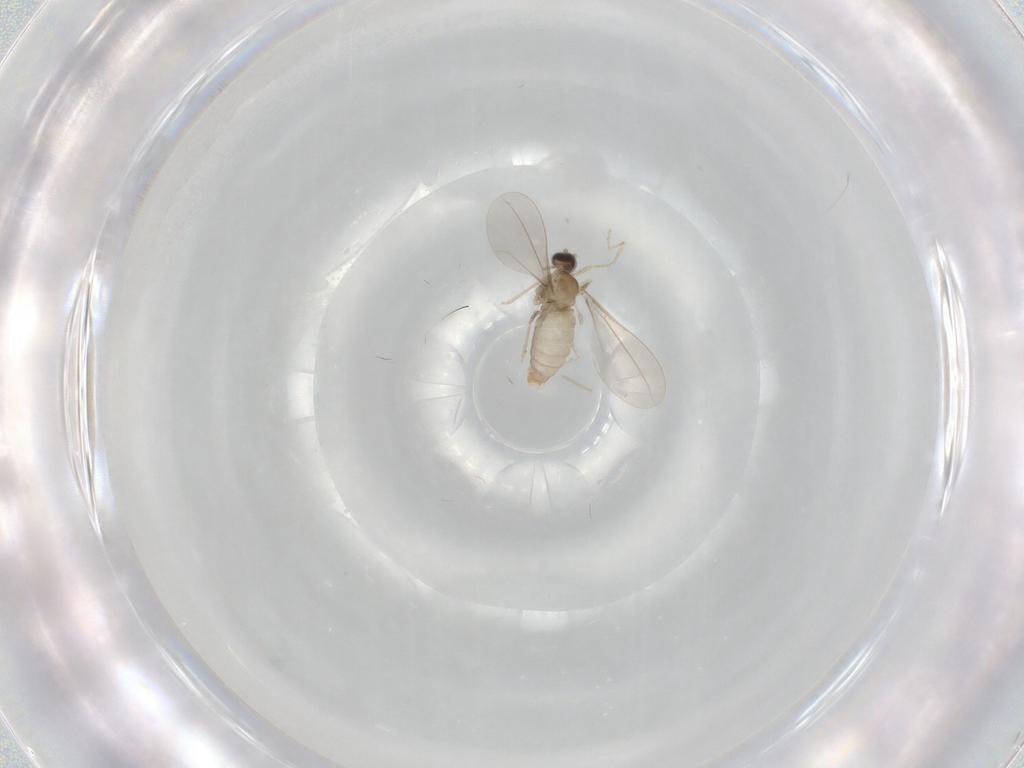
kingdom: Animalia
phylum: Arthropoda
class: Insecta
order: Diptera
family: Cecidomyiidae
